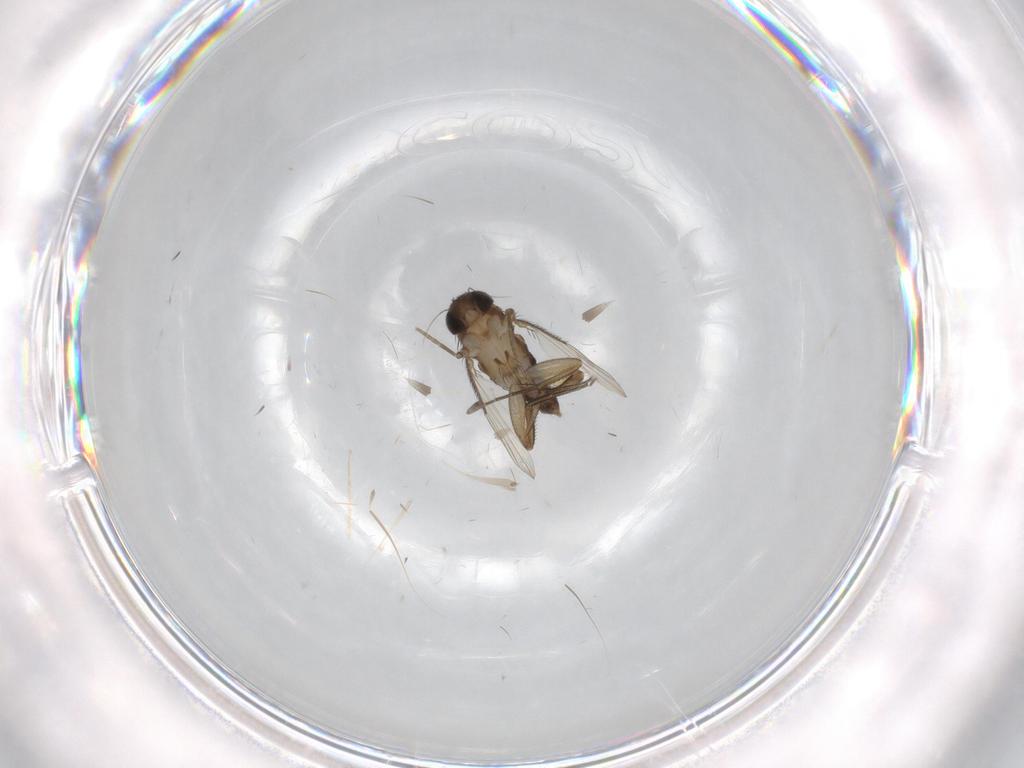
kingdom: Animalia
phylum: Arthropoda
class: Insecta
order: Diptera
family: Phoridae
